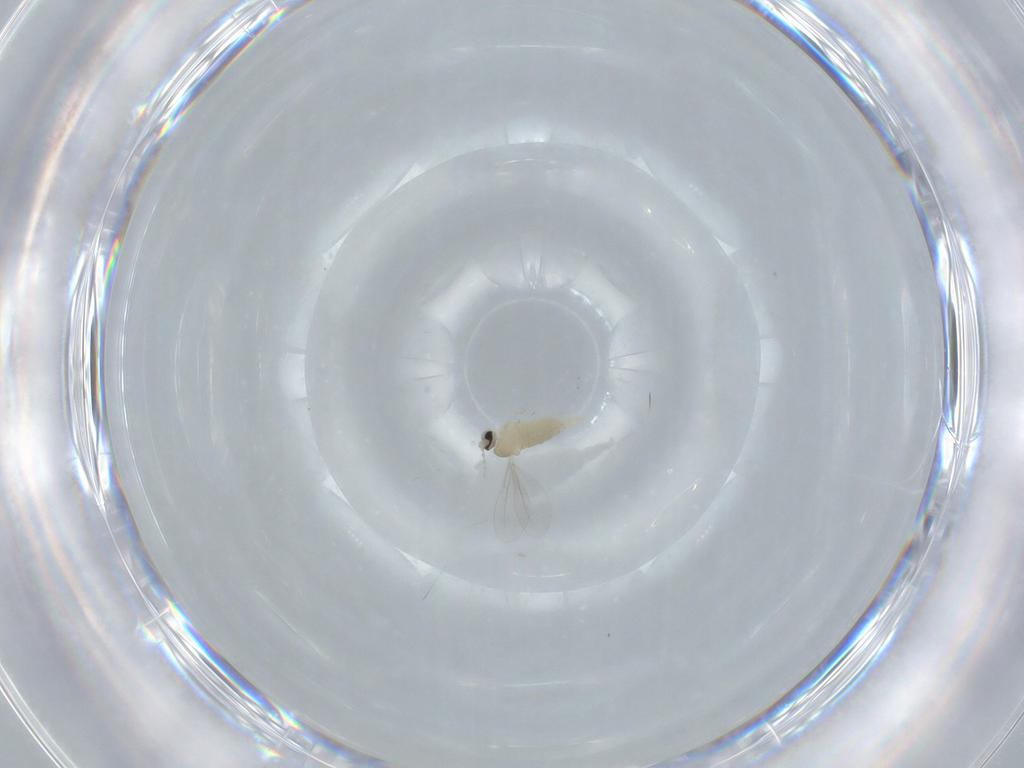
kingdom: Animalia
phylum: Arthropoda
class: Insecta
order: Diptera
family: Cecidomyiidae
